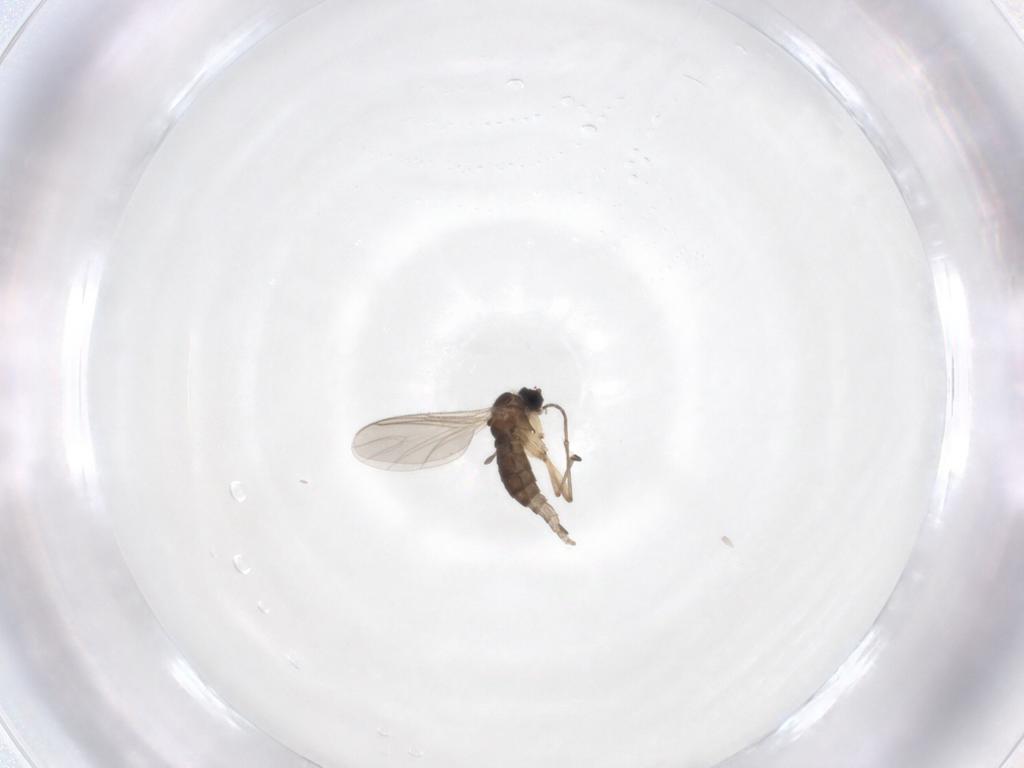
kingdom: Animalia
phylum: Arthropoda
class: Insecta
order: Diptera
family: Sciaridae
